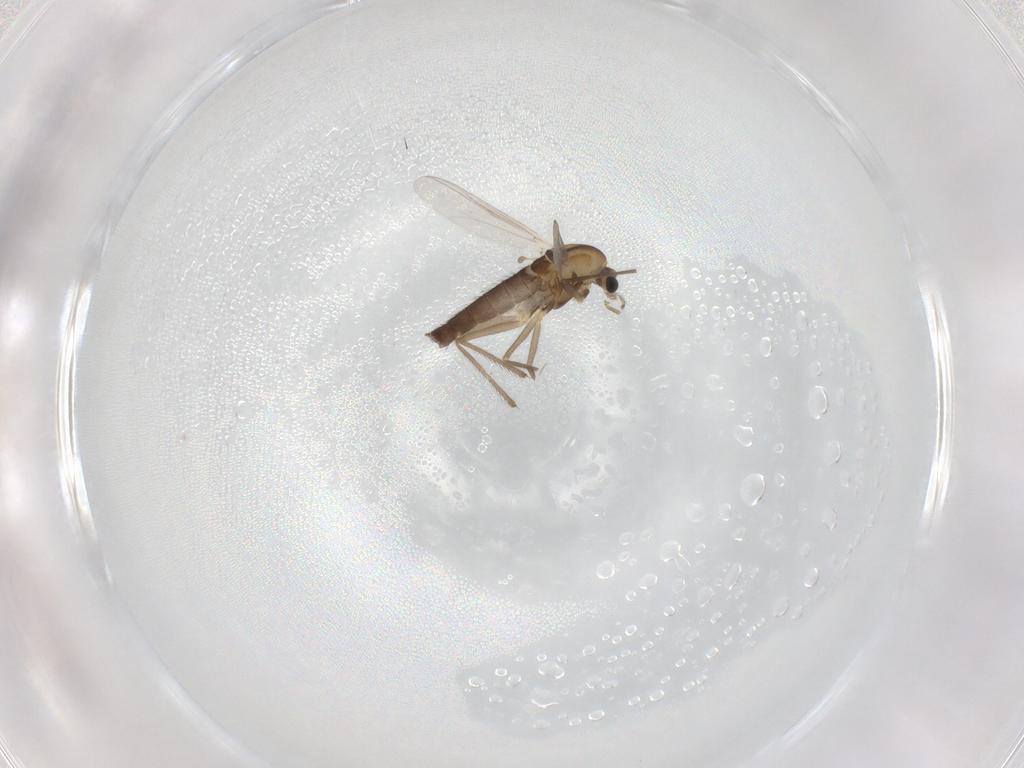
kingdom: Animalia
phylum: Arthropoda
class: Insecta
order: Diptera
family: Chironomidae
